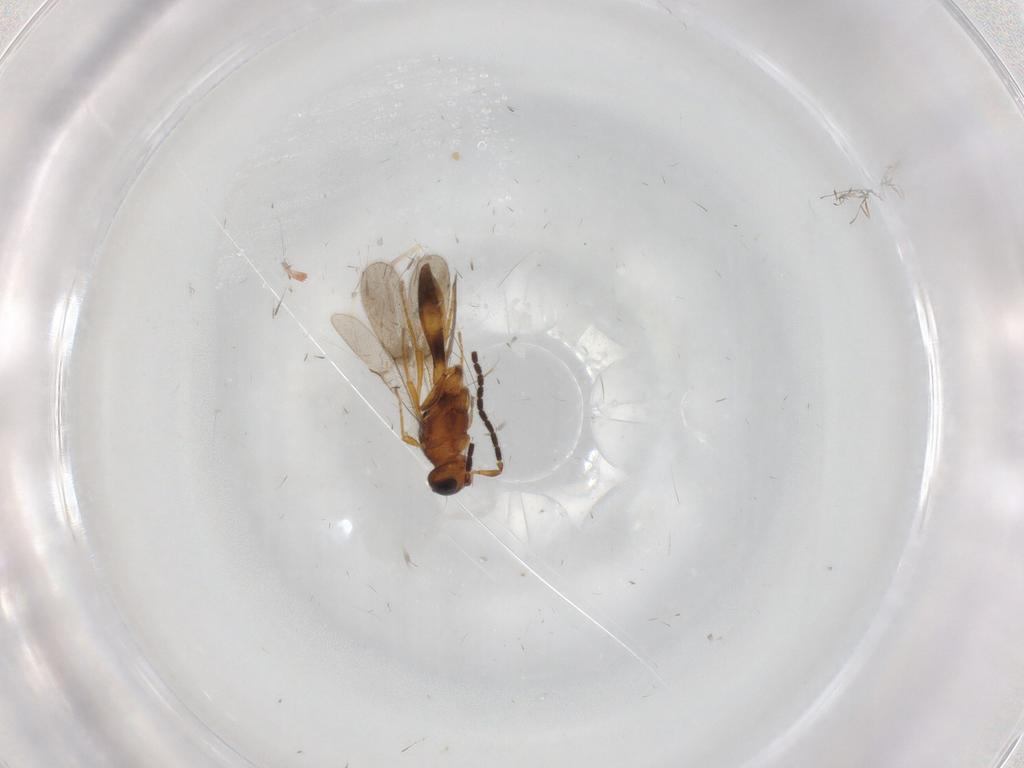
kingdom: Animalia
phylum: Arthropoda
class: Insecta
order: Hymenoptera
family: Scelionidae
